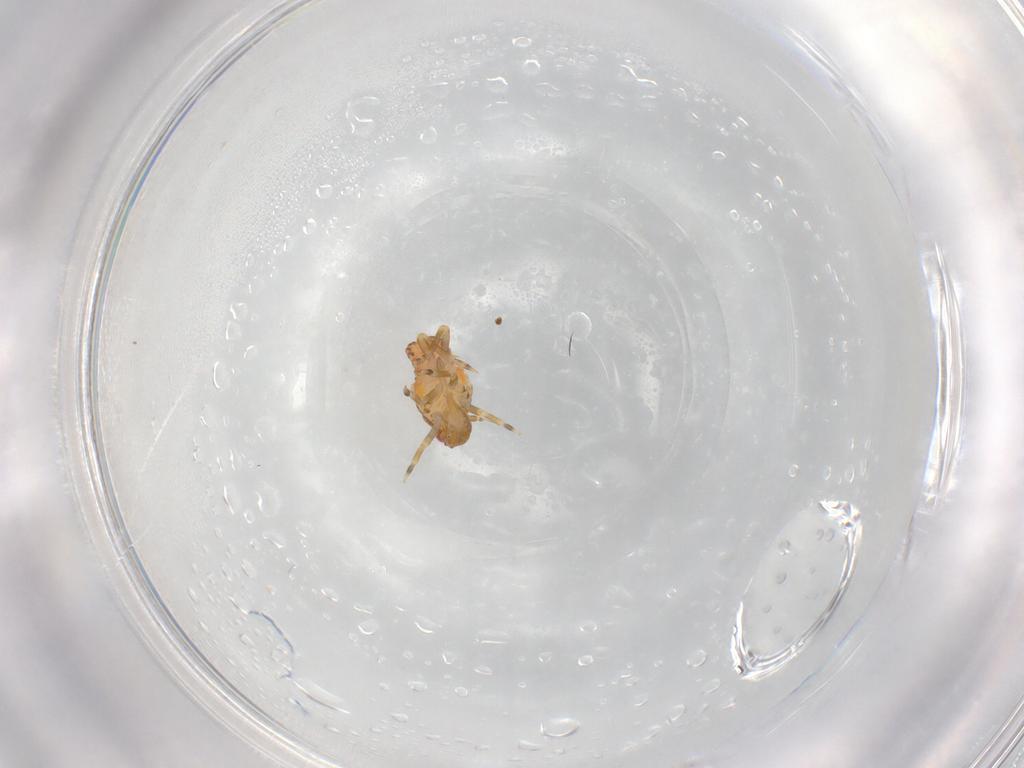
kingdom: Animalia
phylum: Arthropoda
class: Insecta
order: Hemiptera
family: Flatidae
